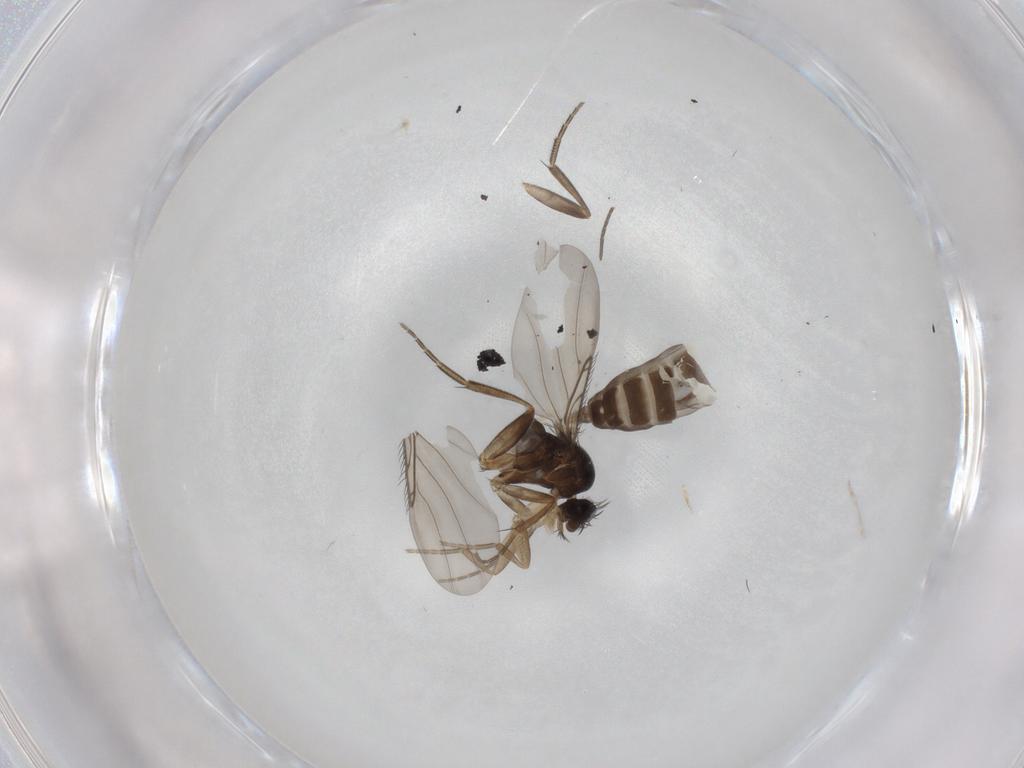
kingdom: Animalia
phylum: Arthropoda
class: Insecta
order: Diptera
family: Phoridae
